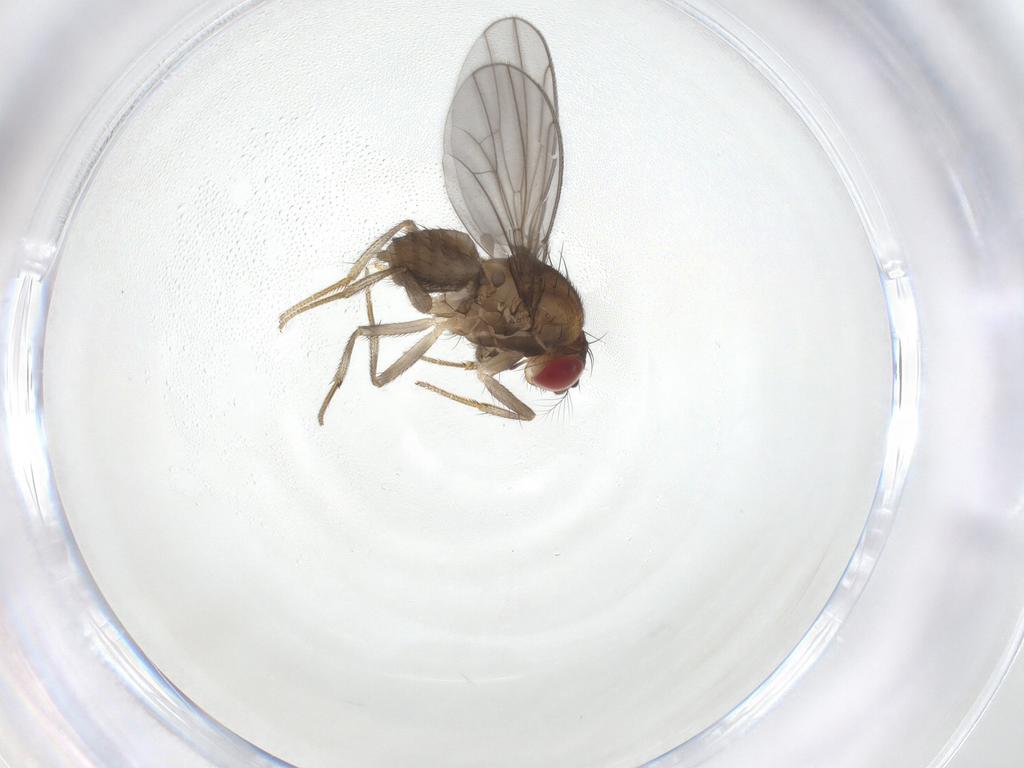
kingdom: Animalia
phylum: Arthropoda
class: Insecta
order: Diptera
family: Drosophilidae
